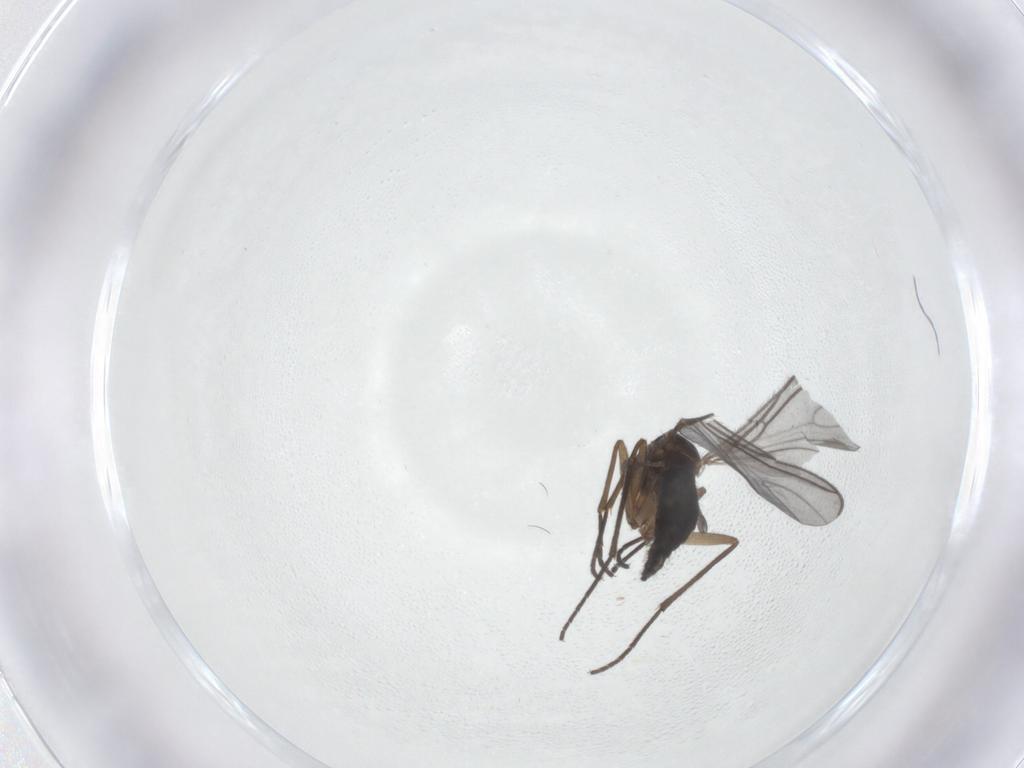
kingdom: Animalia
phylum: Arthropoda
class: Insecta
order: Diptera
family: Sciaridae
